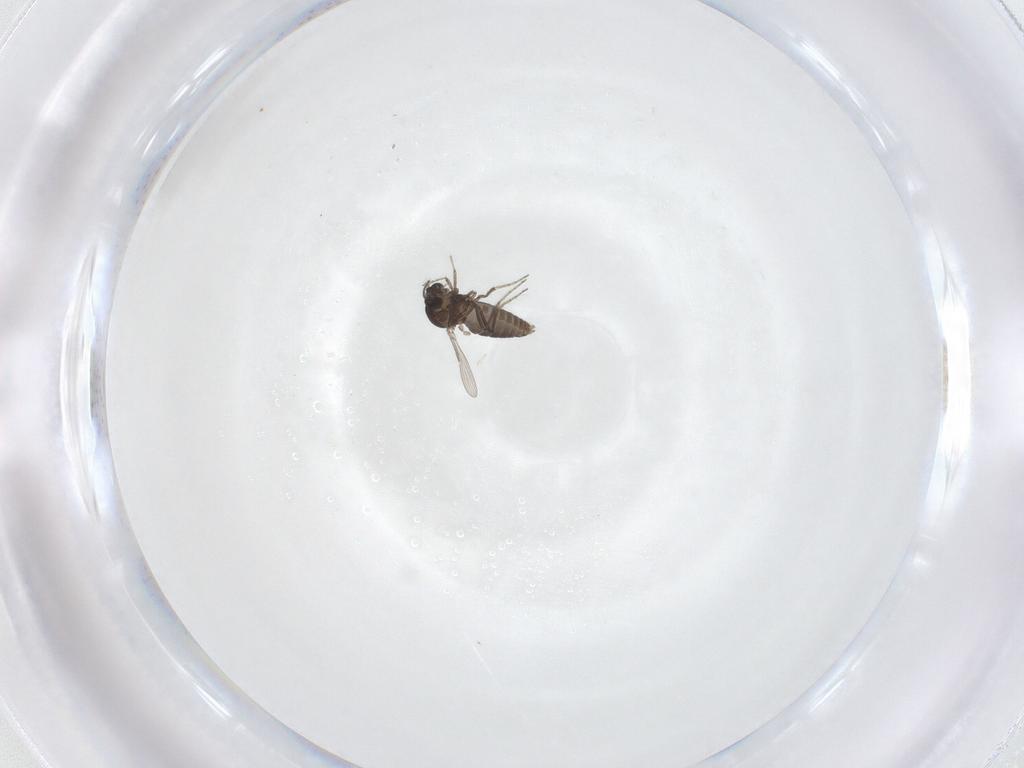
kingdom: Animalia
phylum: Arthropoda
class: Insecta
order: Diptera
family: Ceratopogonidae
